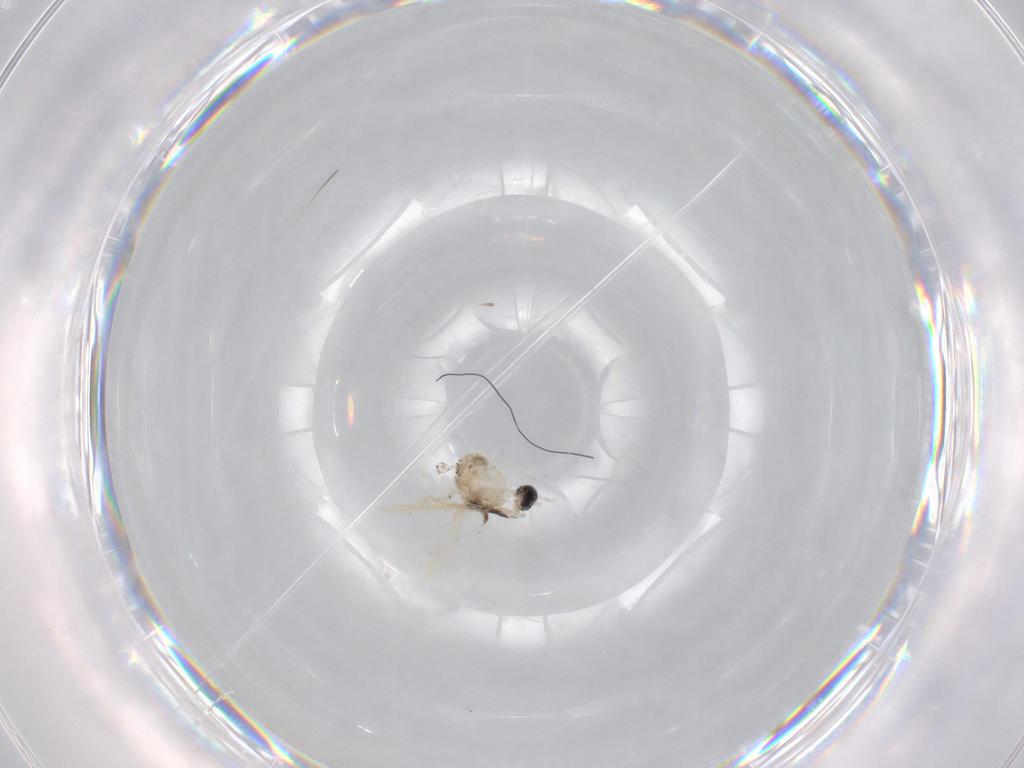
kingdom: Animalia
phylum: Arthropoda
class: Insecta
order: Diptera
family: Cecidomyiidae
